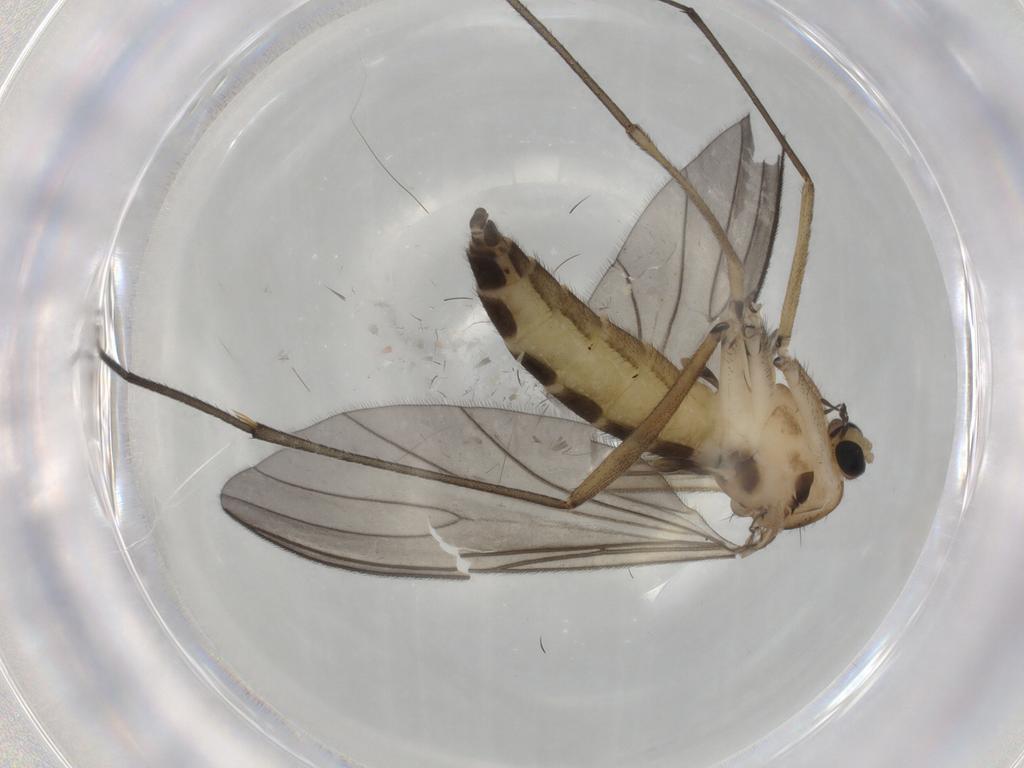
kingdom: Animalia
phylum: Arthropoda
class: Insecta
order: Diptera
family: Sciaridae
